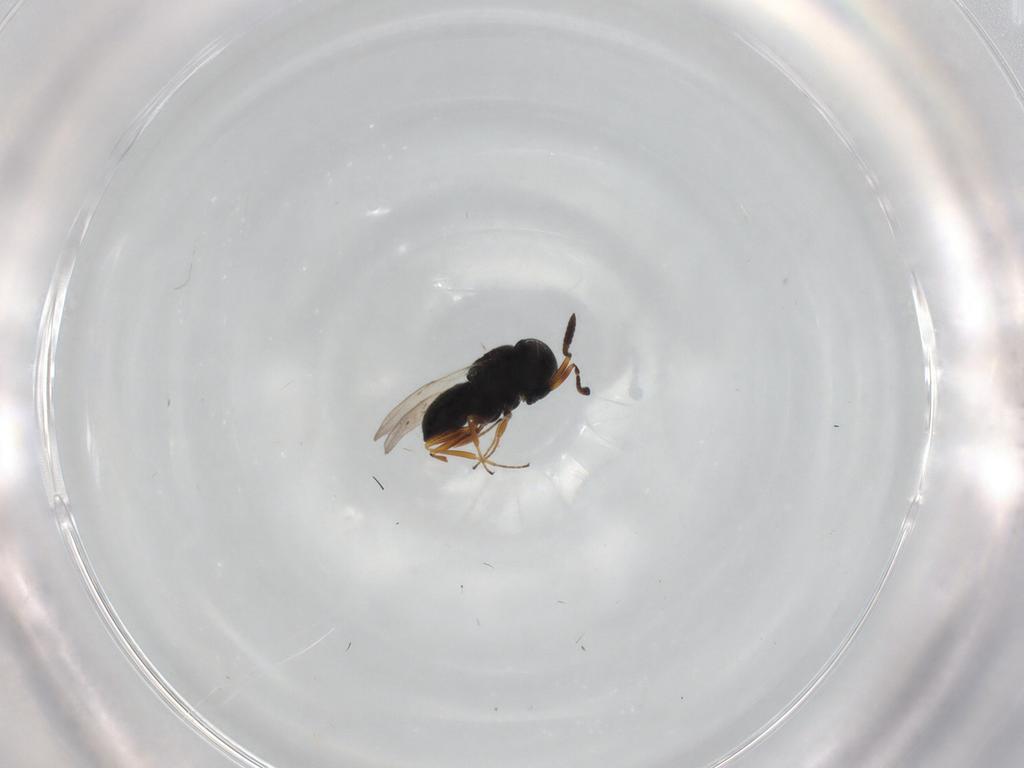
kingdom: Animalia
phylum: Arthropoda
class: Insecta
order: Hymenoptera
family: Scelionidae
